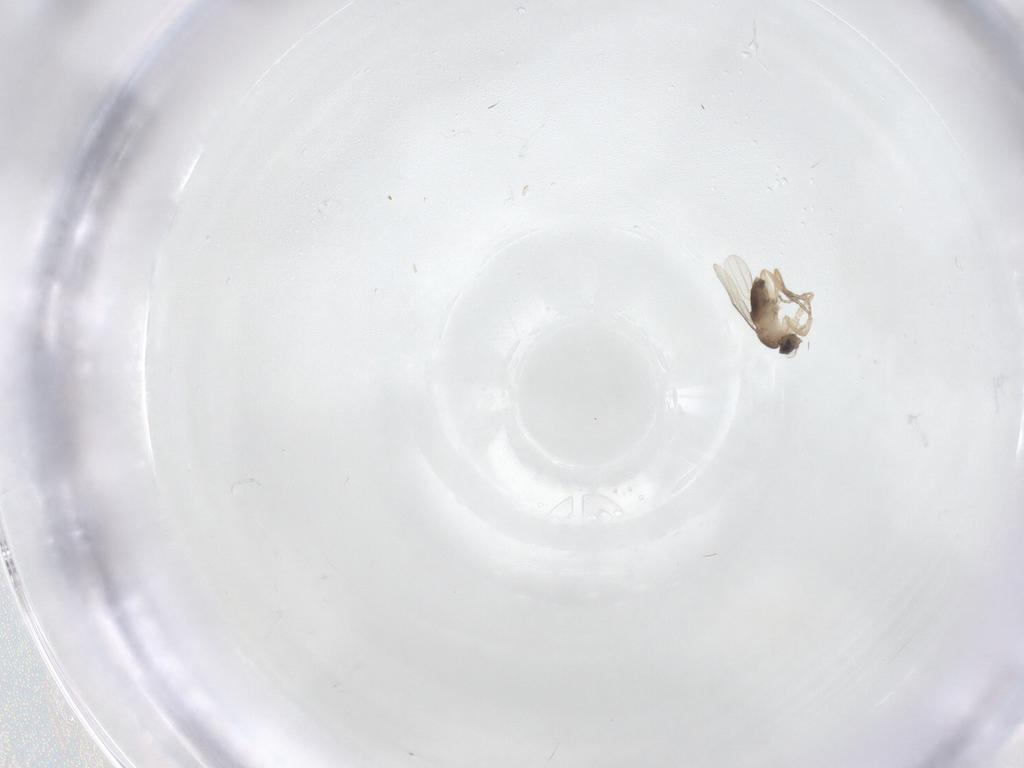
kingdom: Animalia
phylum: Arthropoda
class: Insecta
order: Diptera
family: Phoridae
